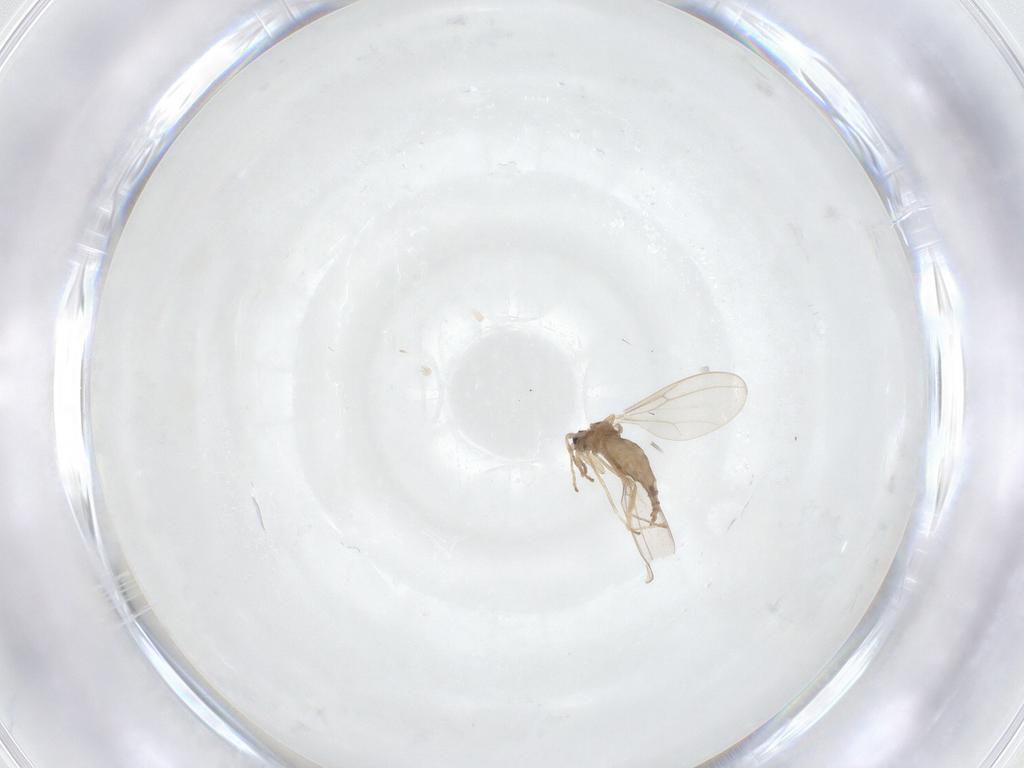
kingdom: Animalia
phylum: Arthropoda
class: Insecta
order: Diptera
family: Cecidomyiidae
